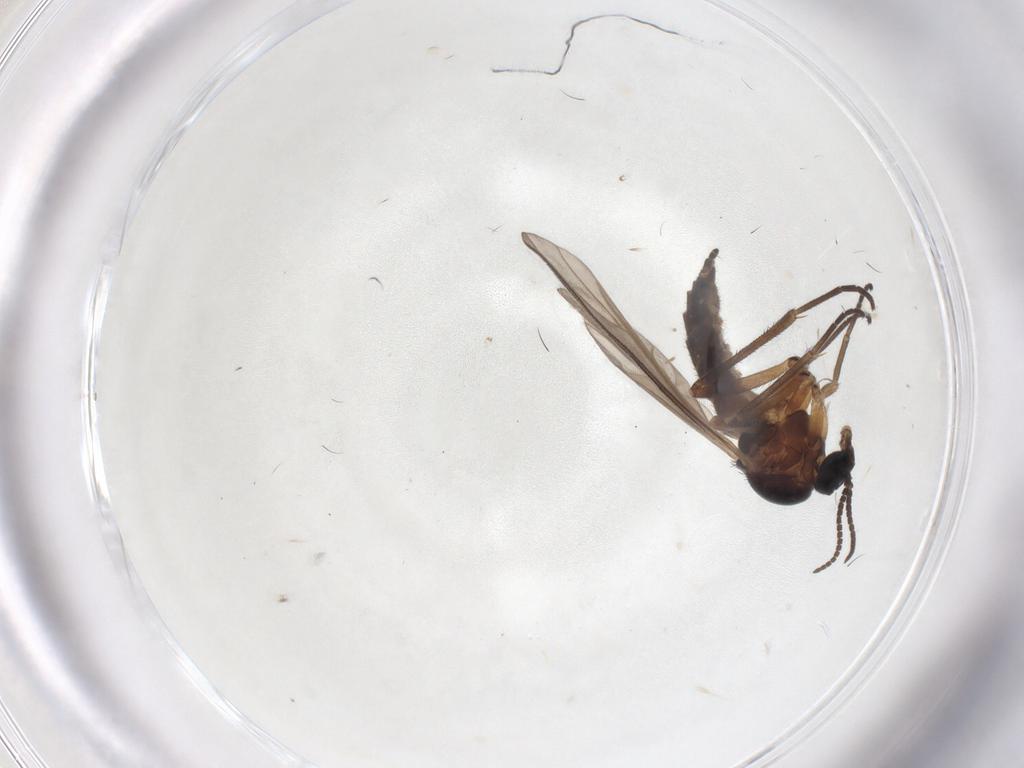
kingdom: Animalia
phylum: Arthropoda
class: Insecta
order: Diptera
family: Sciaridae
